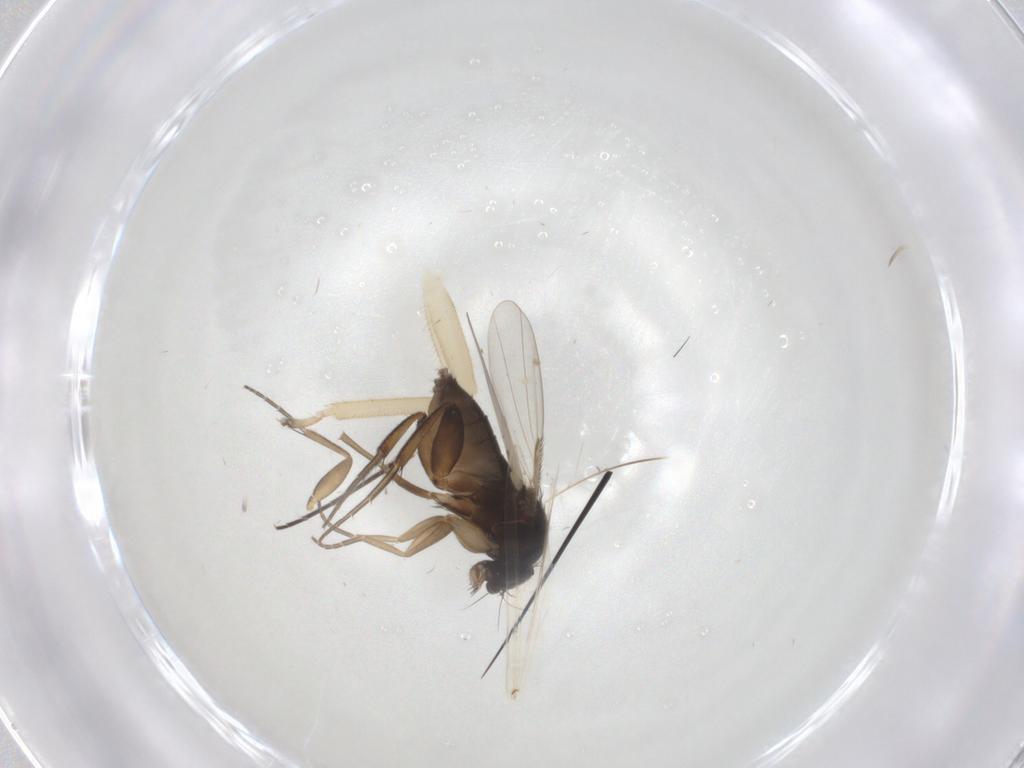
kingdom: Animalia
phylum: Arthropoda
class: Insecta
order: Diptera
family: Phoridae
